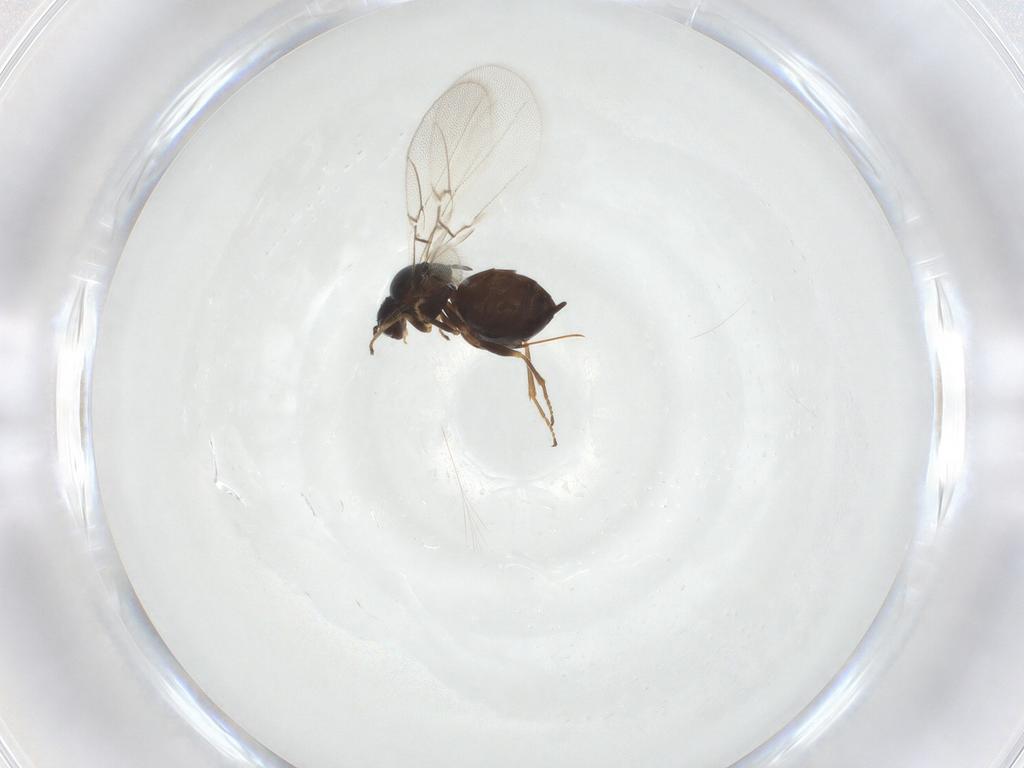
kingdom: Animalia
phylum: Arthropoda
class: Insecta
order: Hymenoptera
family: Cynipidae
